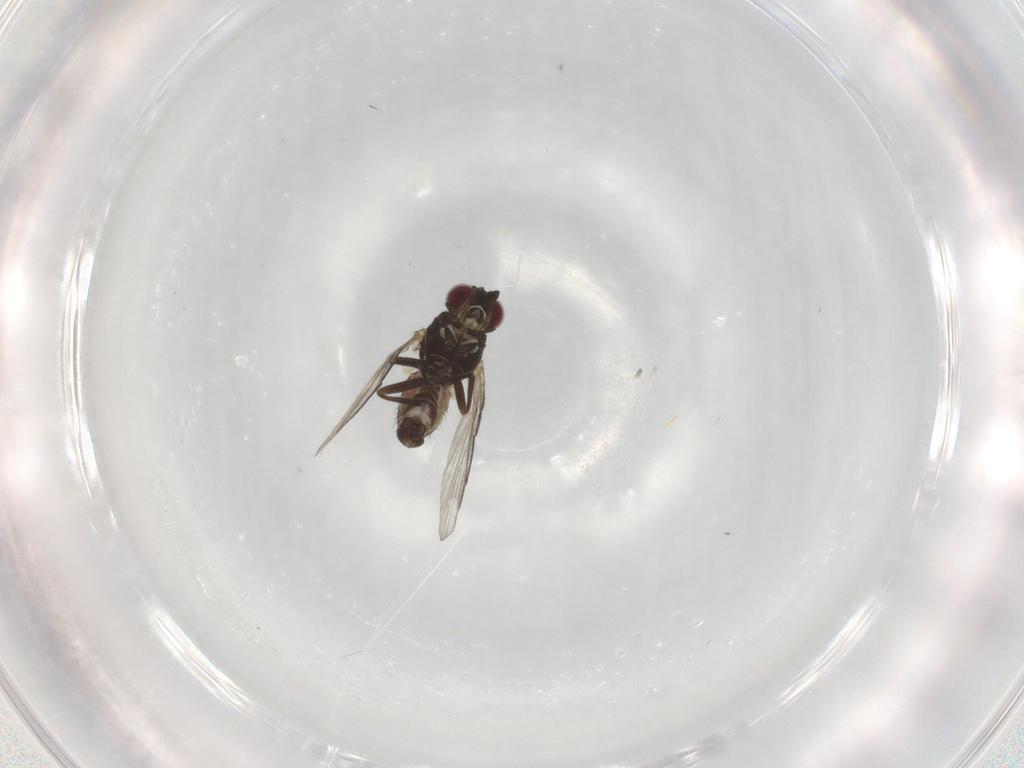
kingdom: Animalia
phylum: Arthropoda
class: Insecta
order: Diptera
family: Agromyzidae
